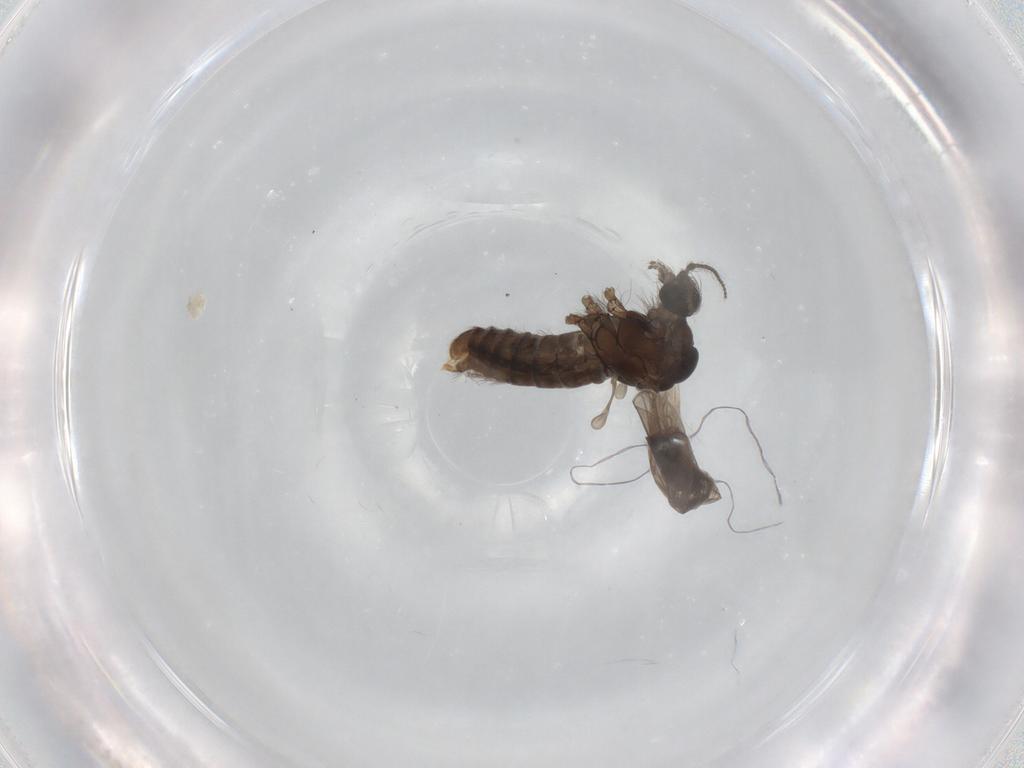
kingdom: Animalia
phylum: Arthropoda
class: Insecta
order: Diptera
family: Limoniidae
